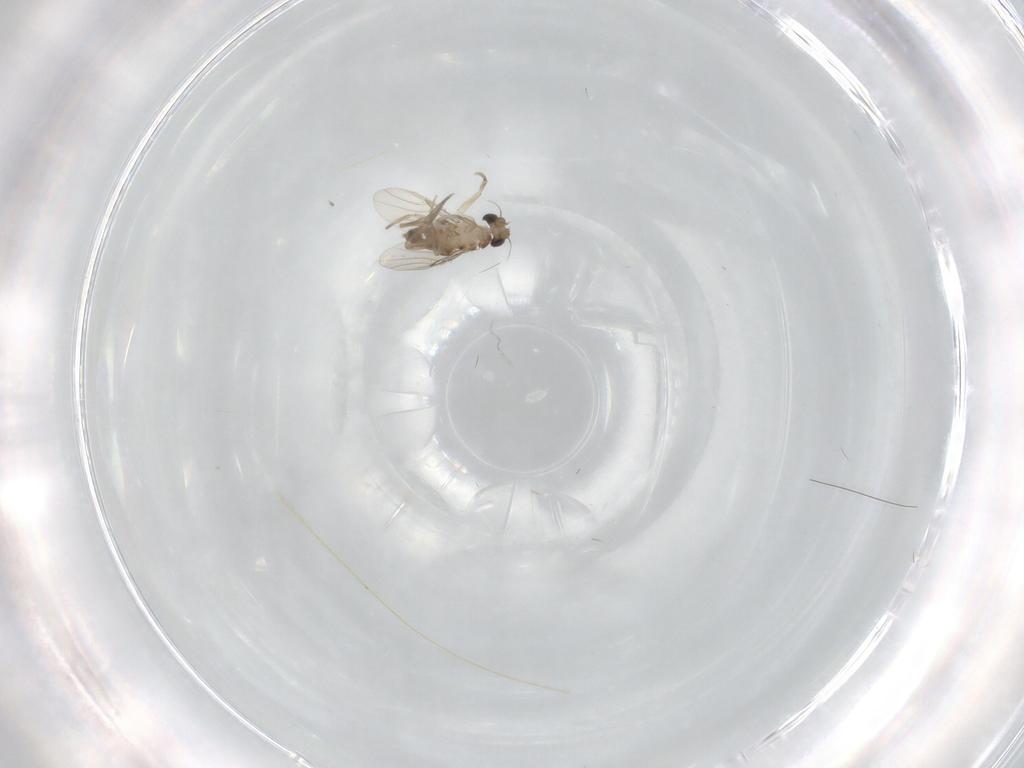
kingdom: Animalia
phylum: Arthropoda
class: Insecta
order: Diptera
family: Phoridae
